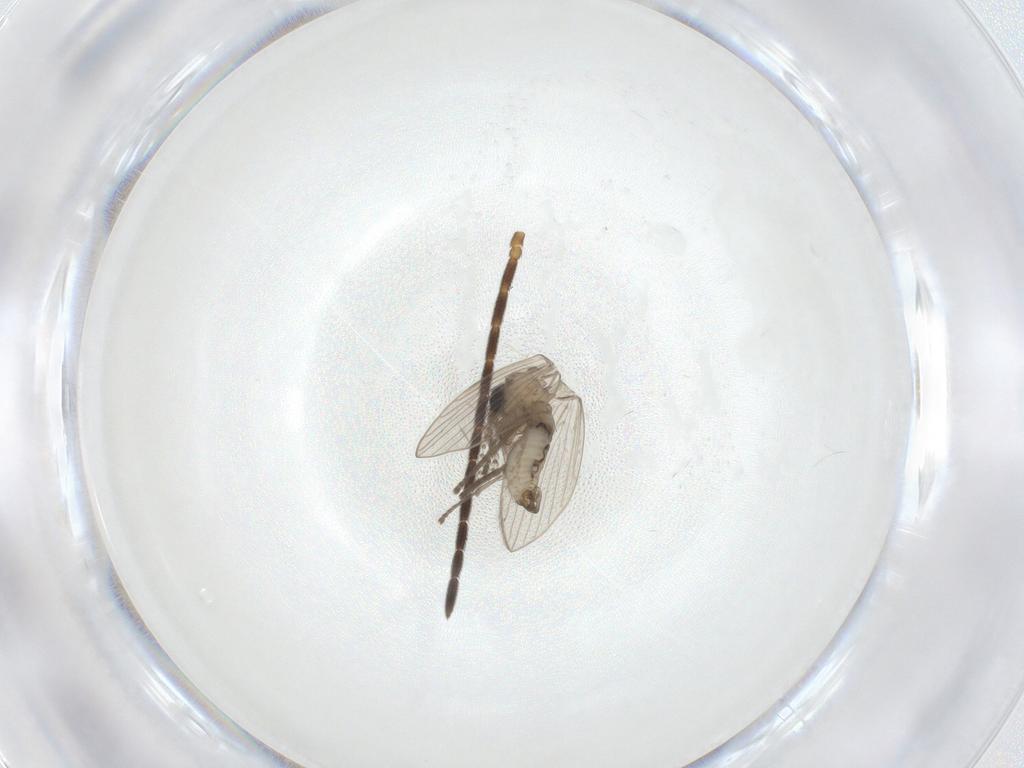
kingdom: Animalia
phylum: Arthropoda
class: Insecta
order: Diptera
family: Psychodidae
